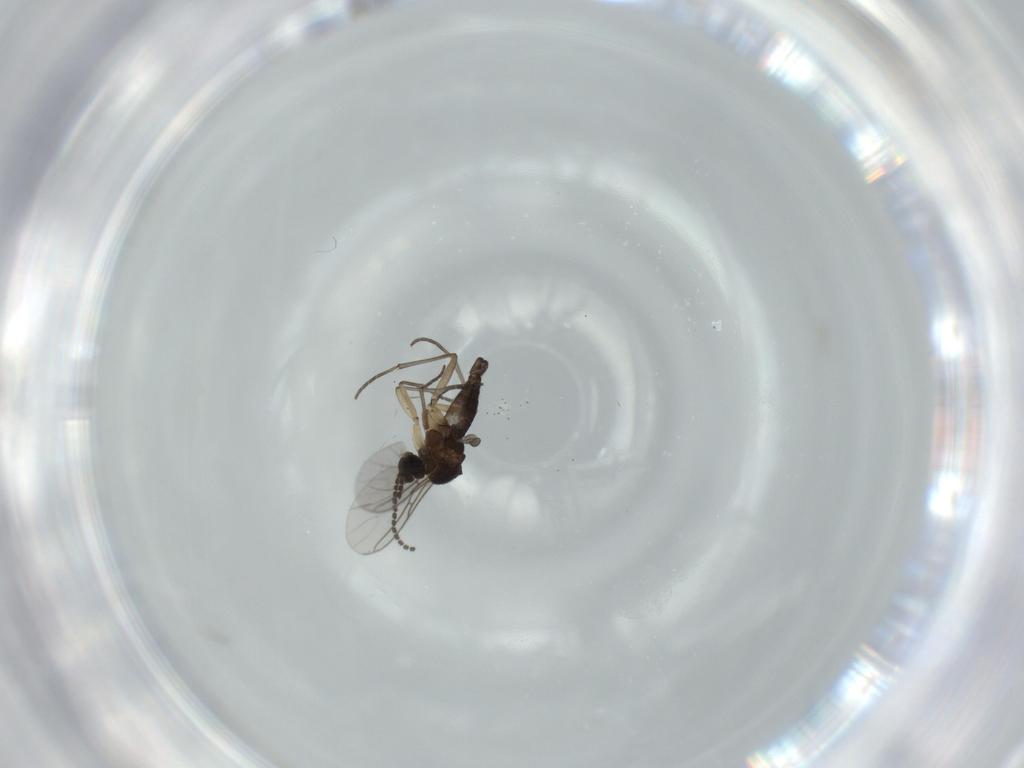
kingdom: Animalia
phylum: Arthropoda
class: Insecta
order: Diptera
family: Sciaridae
